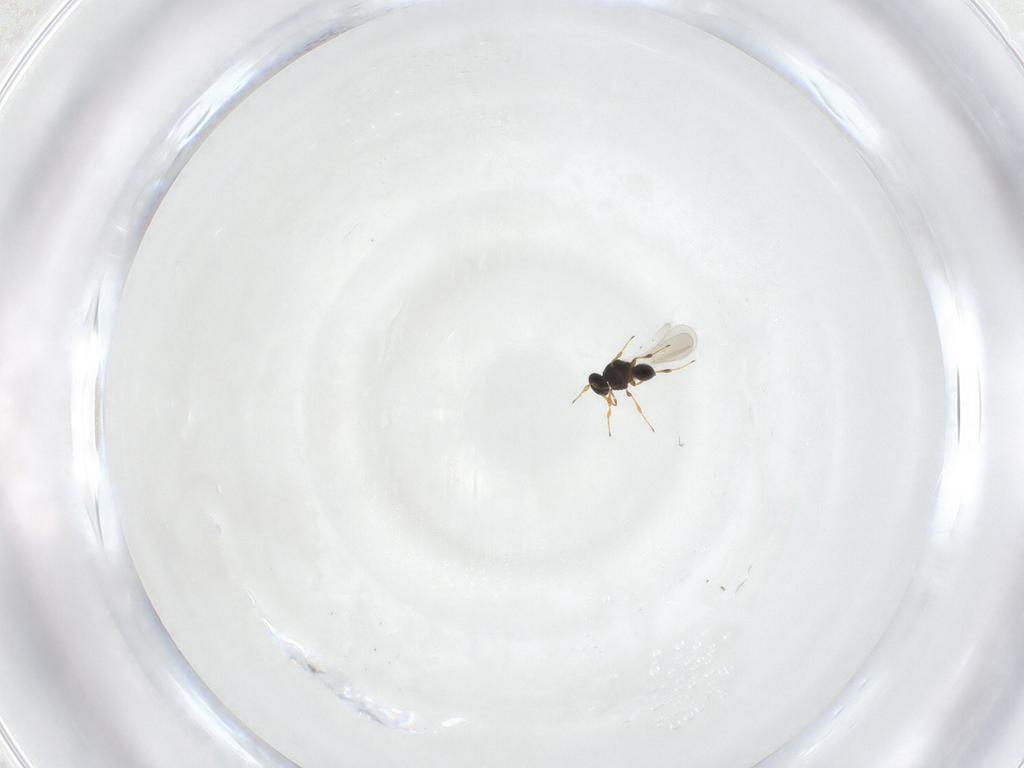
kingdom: Animalia
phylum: Arthropoda
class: Insecta
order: Hymenoptera
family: Platygastridae
